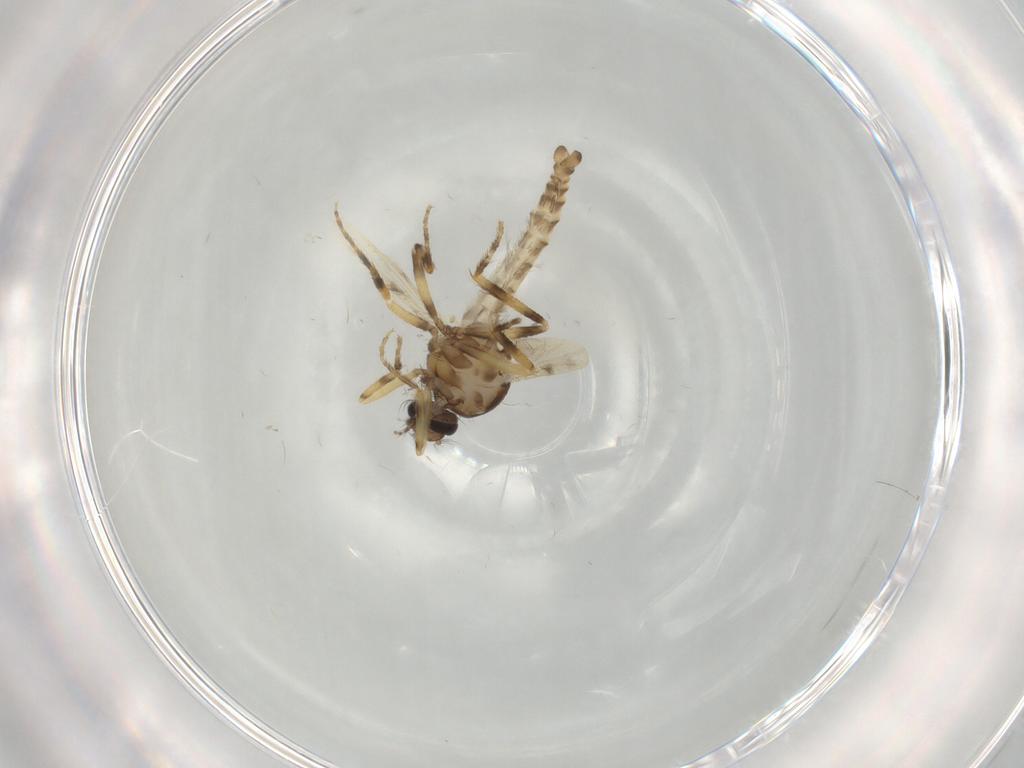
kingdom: Animalia
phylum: Arthropoda
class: Insecta
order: Diptera
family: Ceratopogonidae
